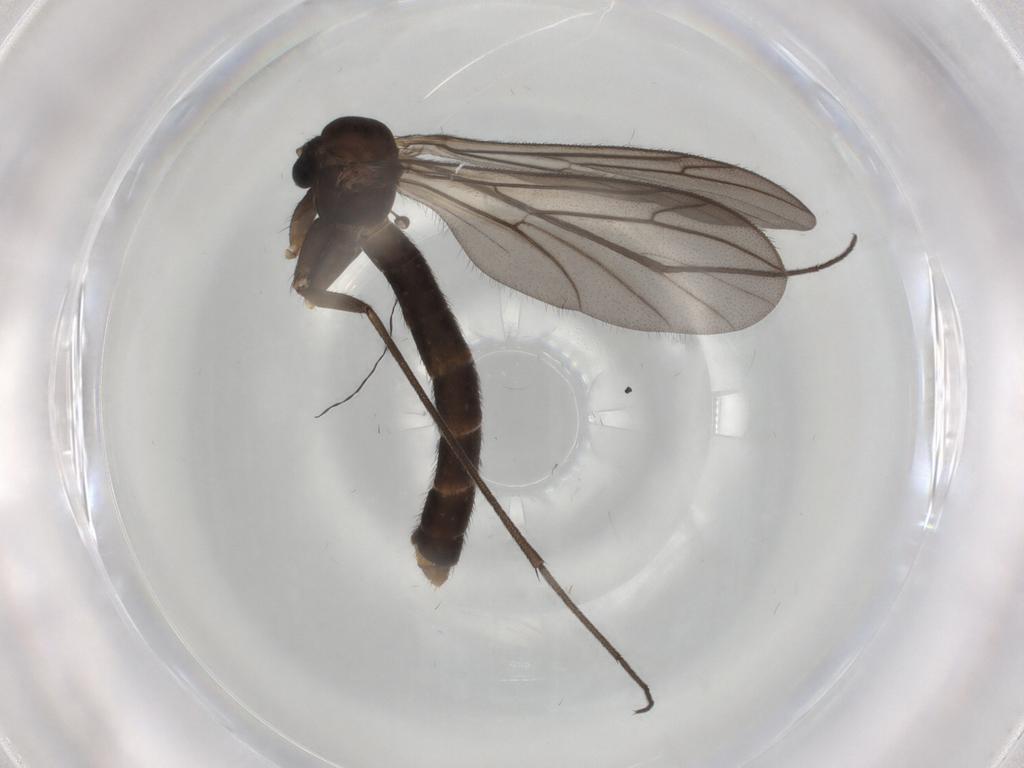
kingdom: Animalia
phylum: Arthropoda
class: Insecta
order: Diptera
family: Keroplatidae
